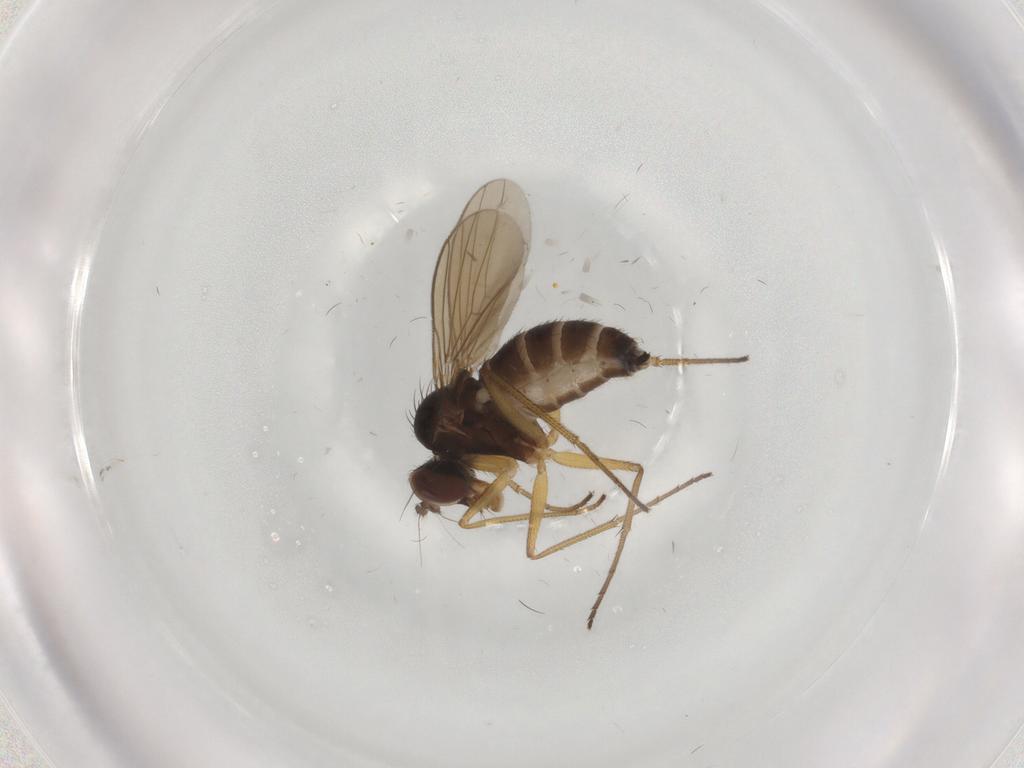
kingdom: Animalia
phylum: Arthropoda
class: Insecta
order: Diptera
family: Dolichopodidae
